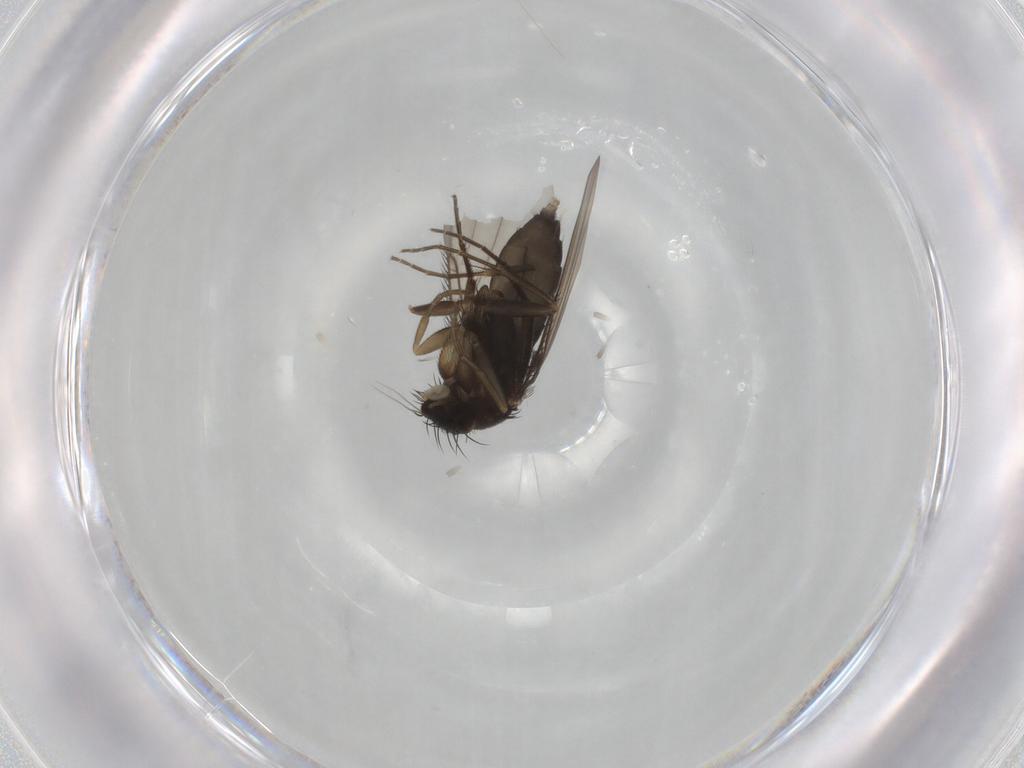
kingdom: Animalia
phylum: Arthropoda
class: Insecta
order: Diptera
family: Phoridae
